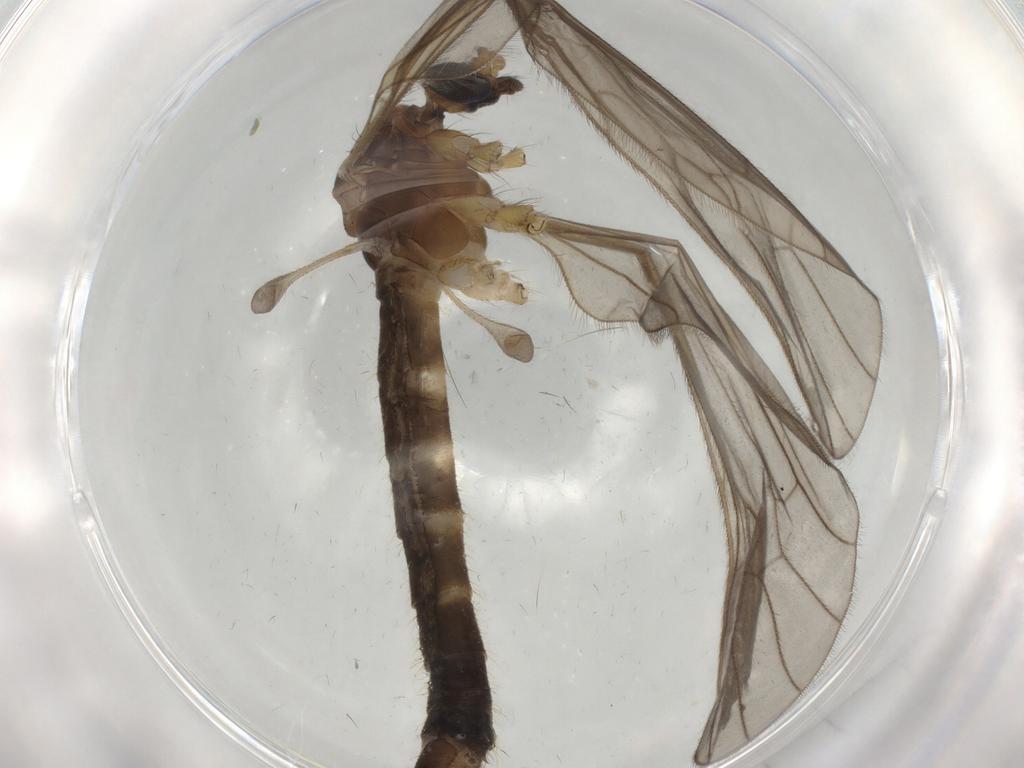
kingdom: Animalia
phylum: Arthropoda
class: Insecta
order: Diptera
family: Phoridae
